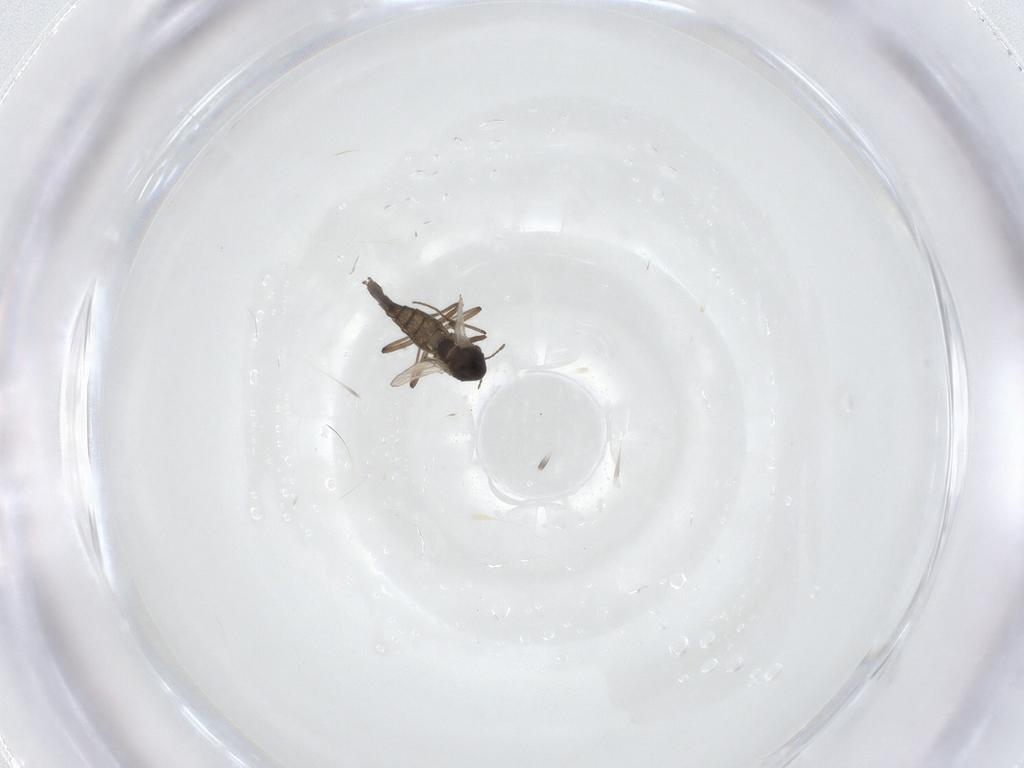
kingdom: Animalia
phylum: Arthropoda
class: Insecta
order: Diptera
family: Chironomidae
